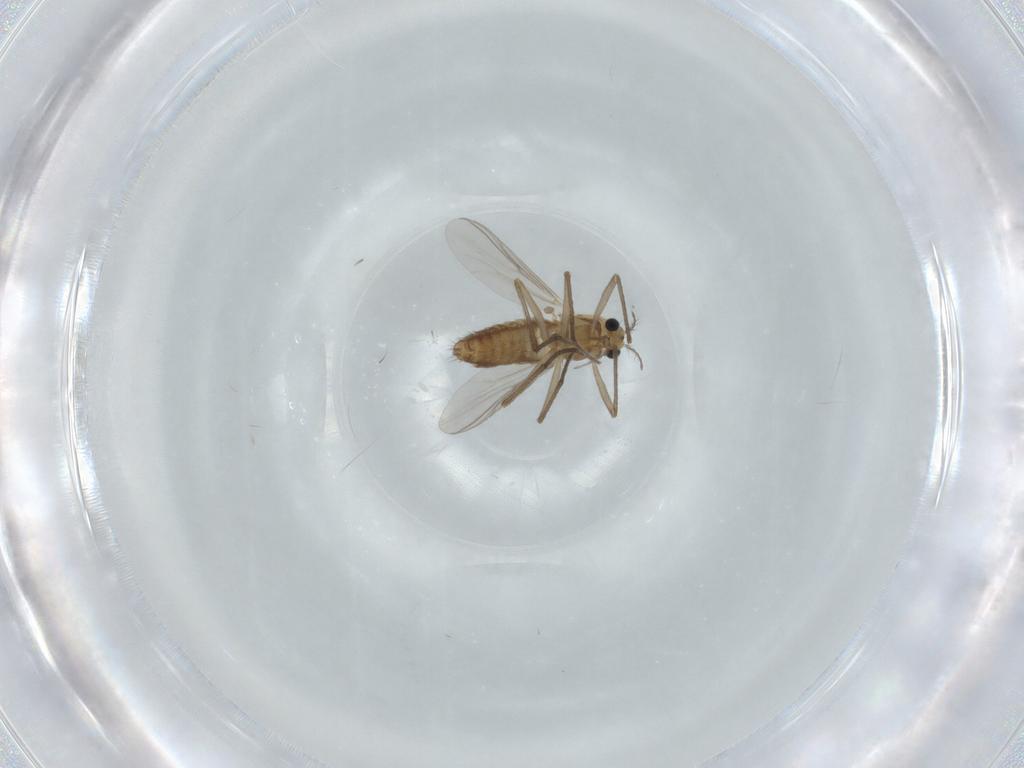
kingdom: Animalia
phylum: Arthropoda
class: Insecta
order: Diptera
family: Chironomidae
